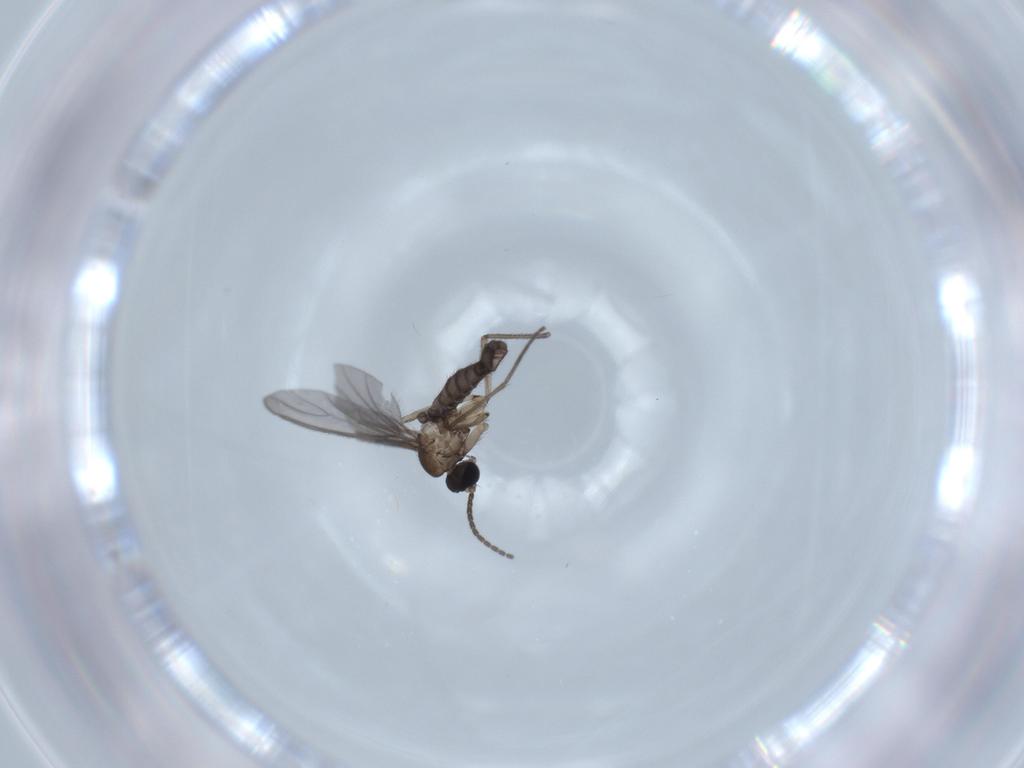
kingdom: Animalia
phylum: Arthropoda
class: Insecta
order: Diptera
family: Sciaridae
